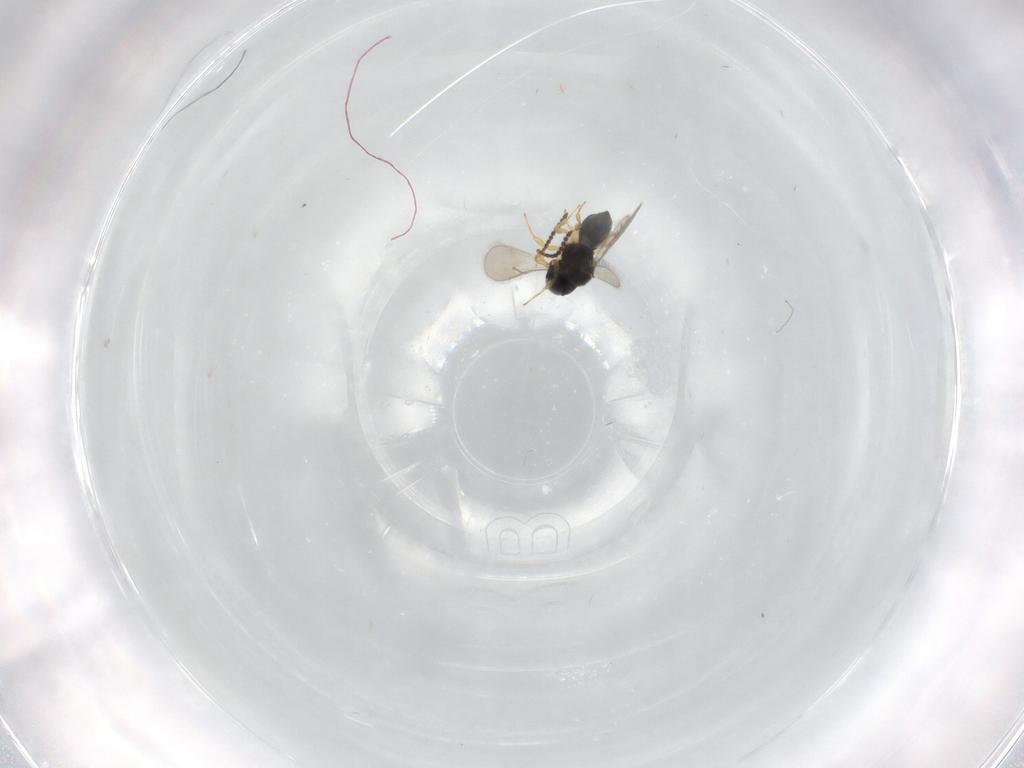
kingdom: Animalia
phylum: Arthropoda
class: Insecta
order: Hymenoptera
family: Scelionidae
